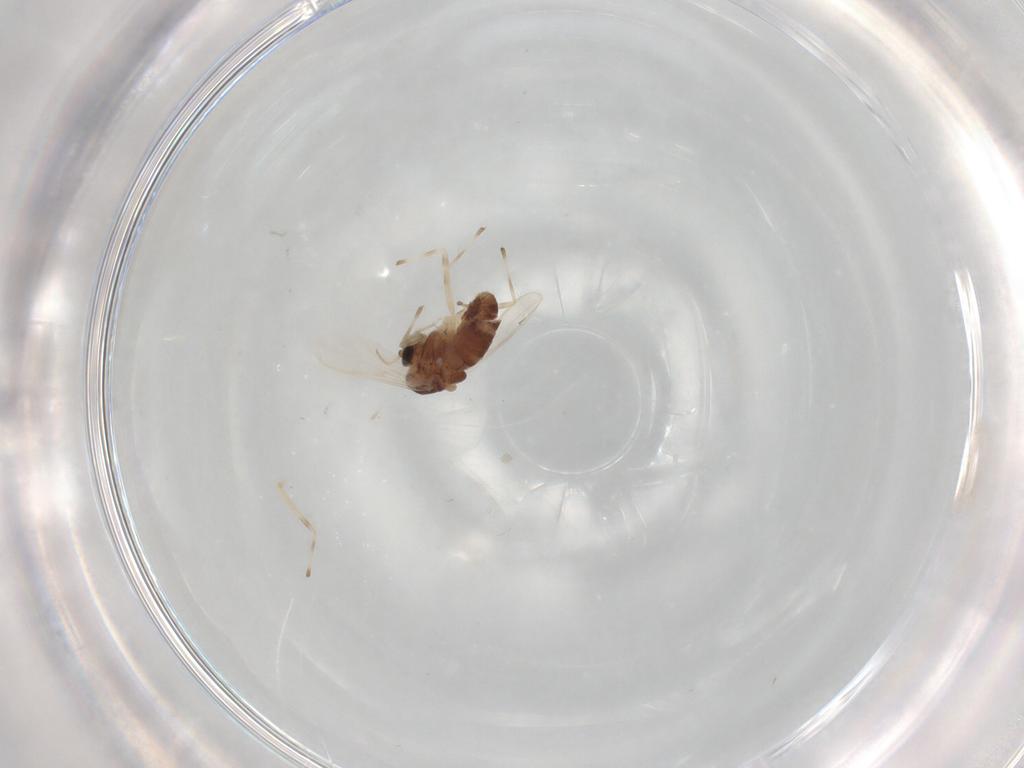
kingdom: Animalia
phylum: Arthropoda
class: Insecta
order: Diptera
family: Chironomidae
